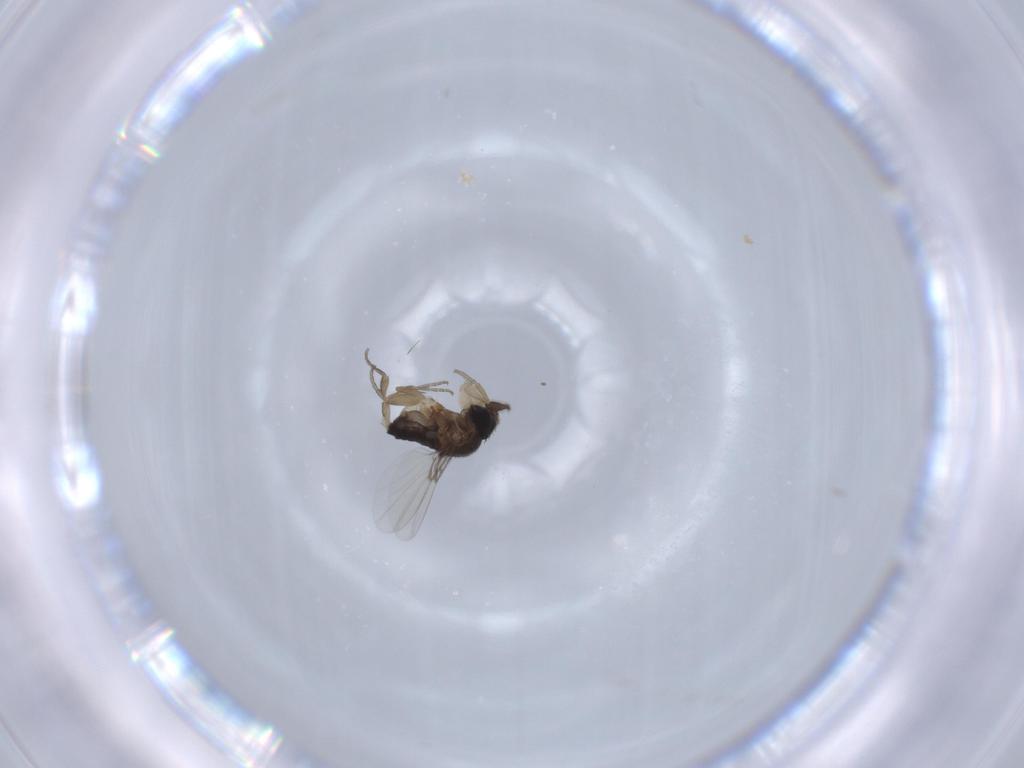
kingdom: Animalia
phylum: Arthropoda
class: Insecta
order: Diptera
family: Phoridae
